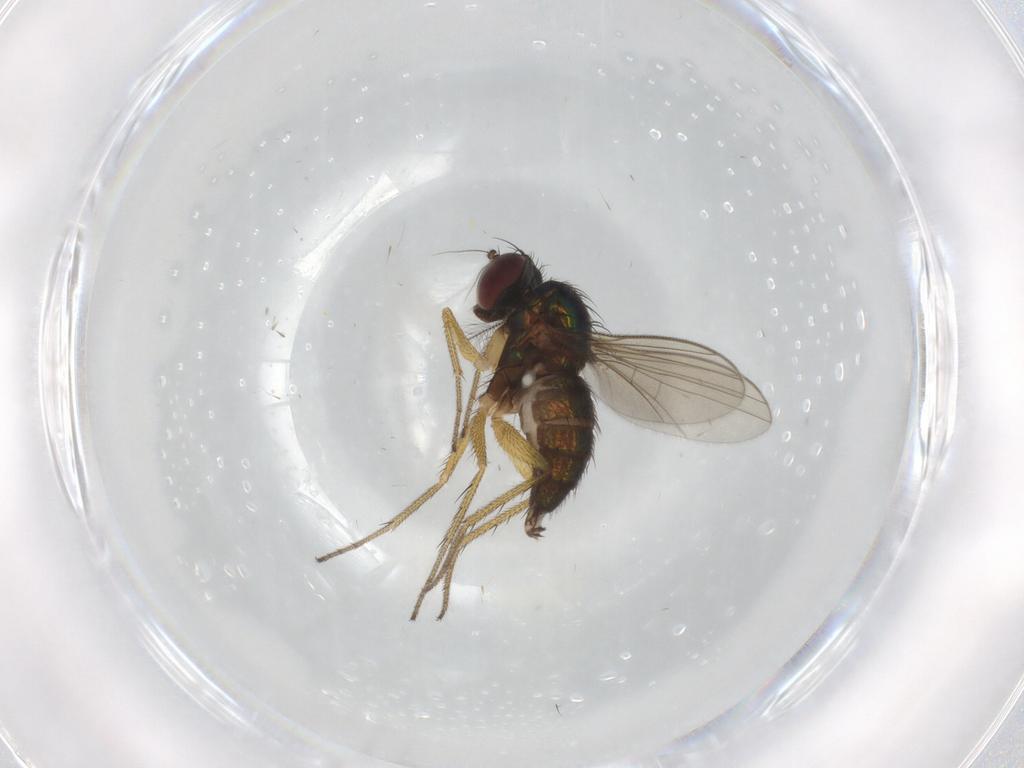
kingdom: Animalia
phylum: Arthropoda
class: Insecta
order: Diptera
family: Dolichopodidae
